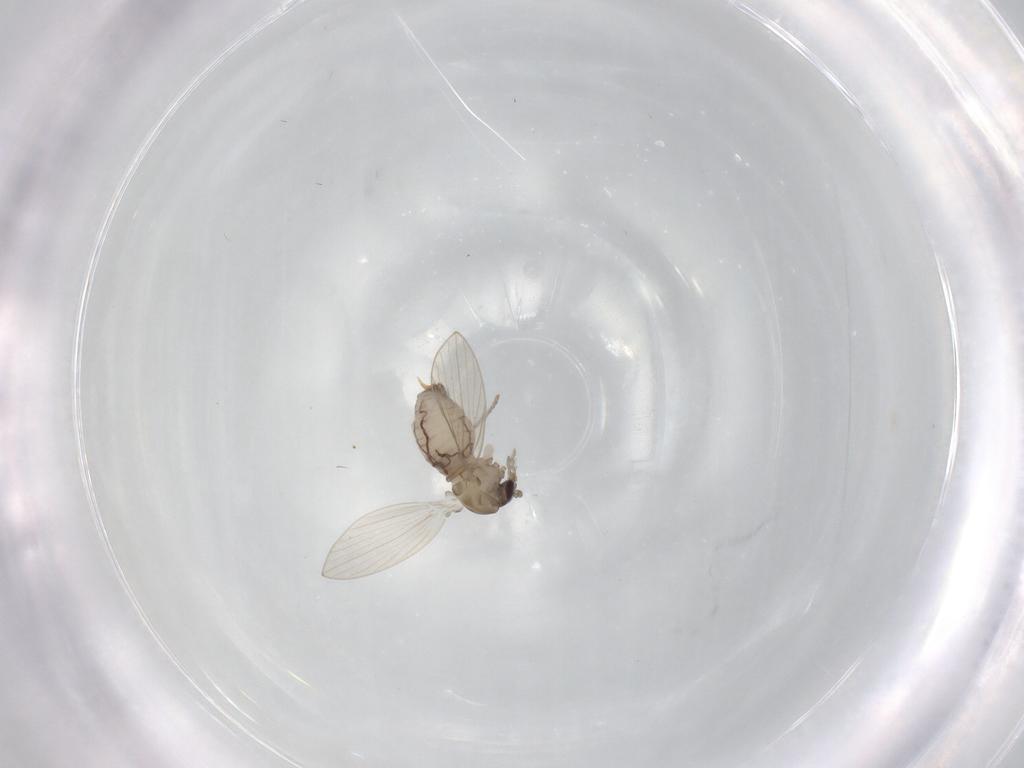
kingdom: Animalia
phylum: Arthropoda
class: Insecta
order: Diptera
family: Psychodidae
